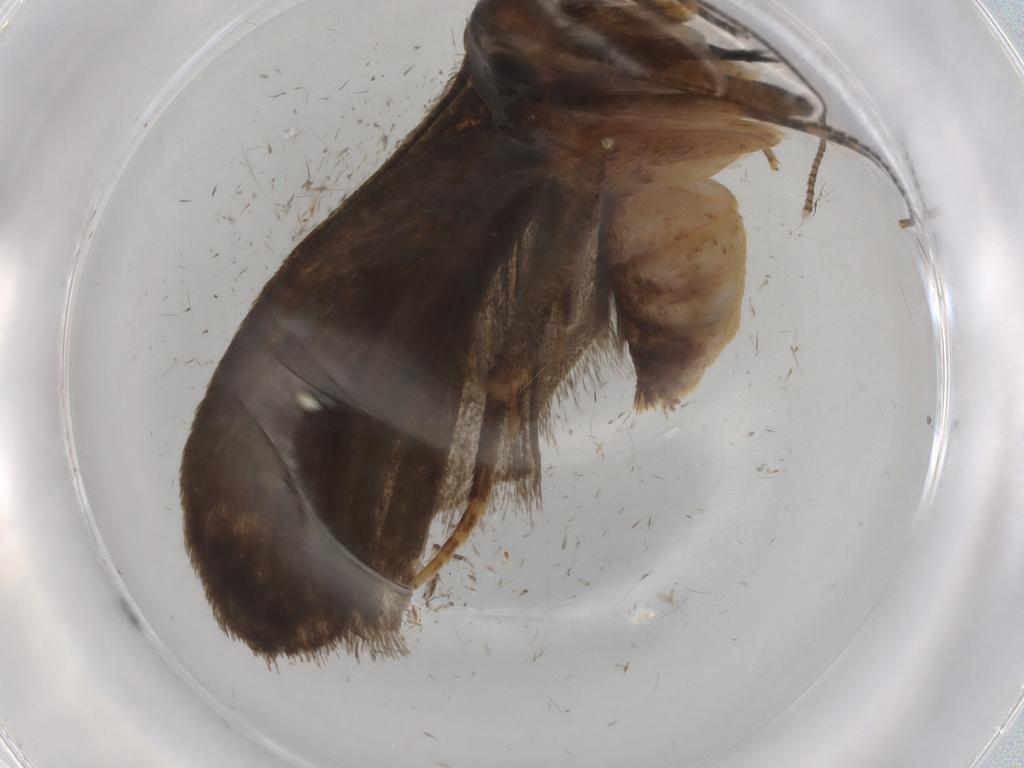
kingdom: Animalia
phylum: Arthropoda
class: Insecta
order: Lepidoptera
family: Autostichidae
